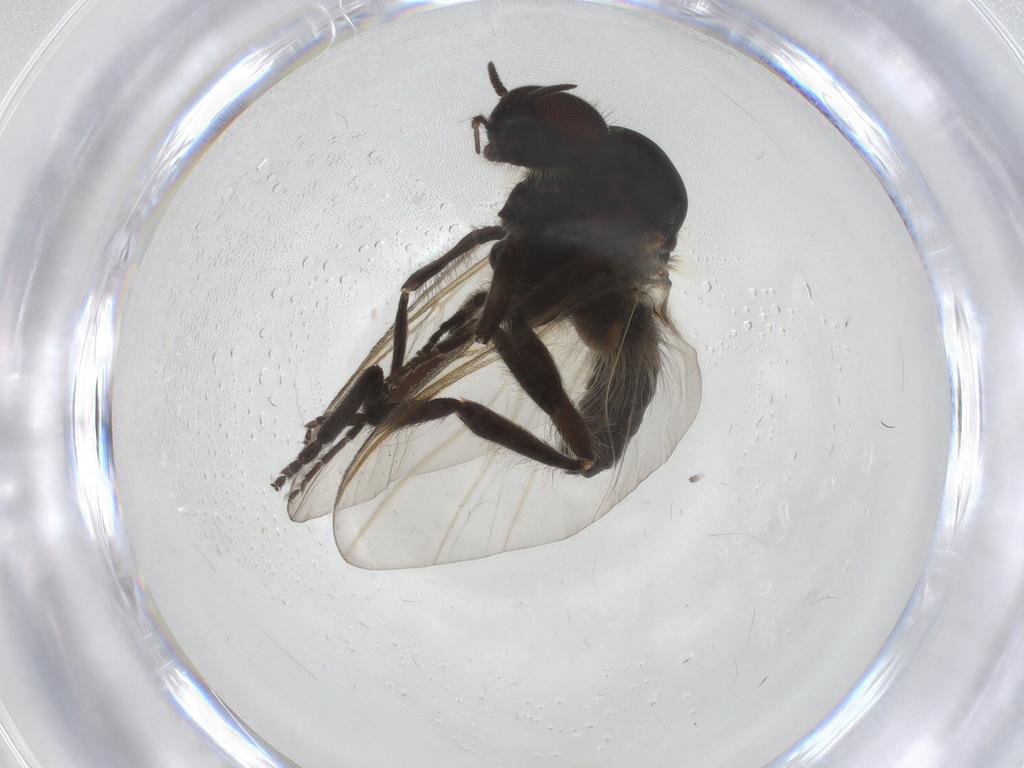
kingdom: Animalia
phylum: Arthropoda
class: Insecta
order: Diptera
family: Simuliidae
